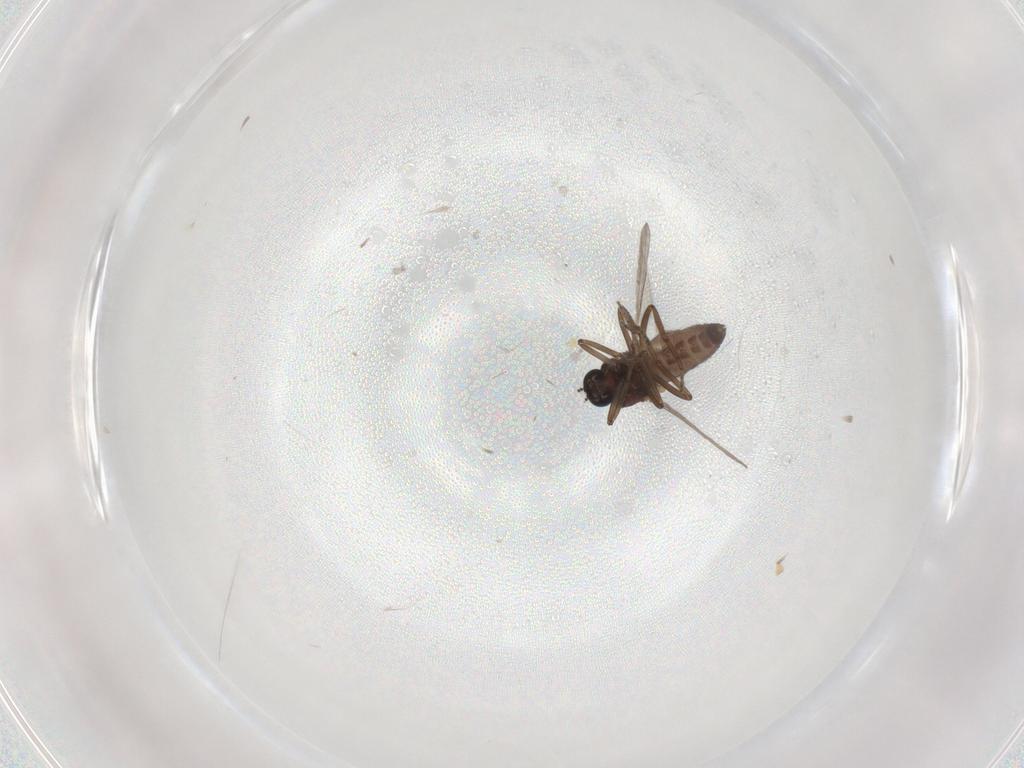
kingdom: Animalia
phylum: Arthropoda
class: Insecta
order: Diptera
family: Ceratopogonidae
